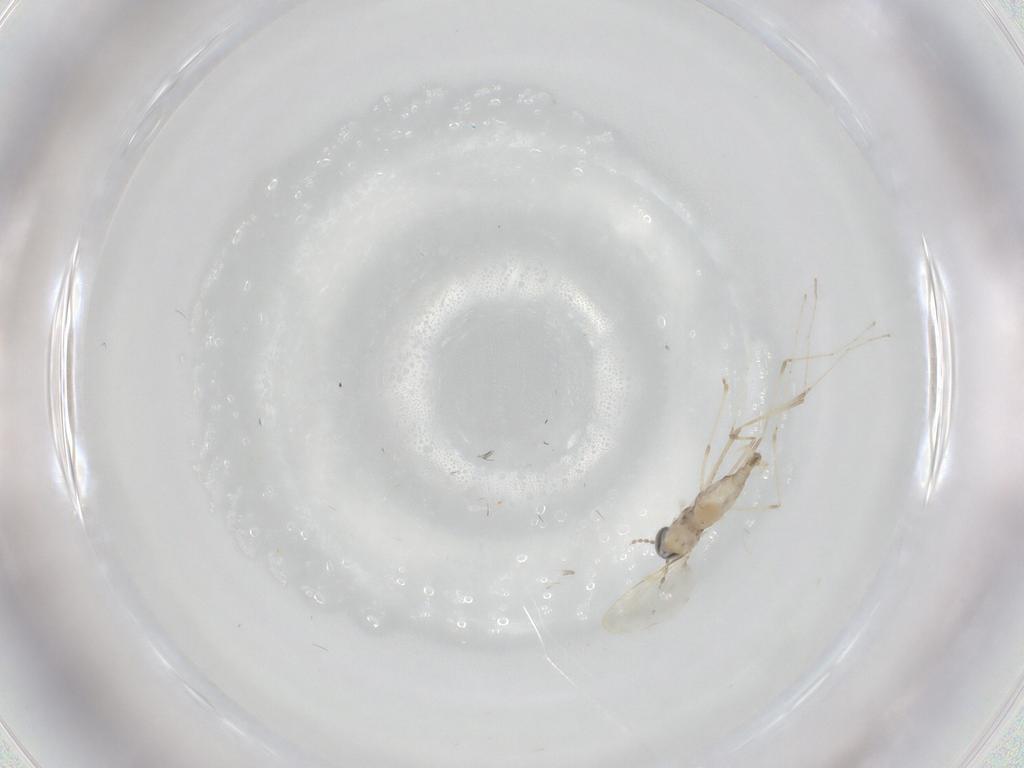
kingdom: Animalia
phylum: Arthropoda
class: Insecta
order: Diptera
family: Cecidomyiidae
